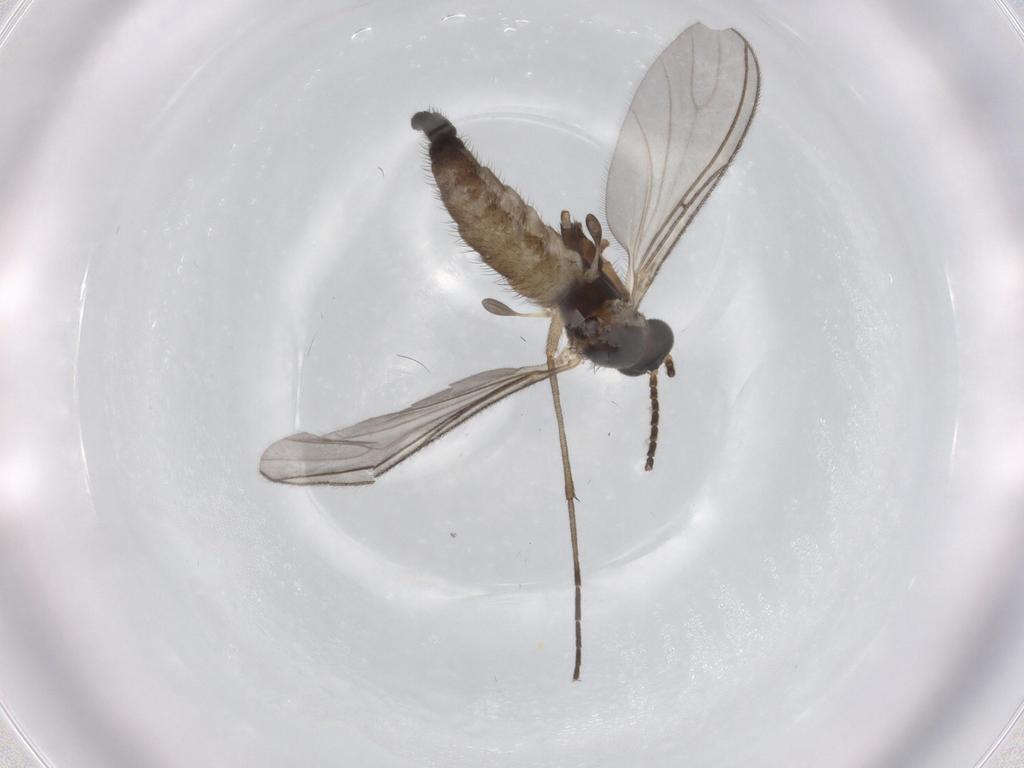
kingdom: Animalia
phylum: Arthropoda
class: Insecta
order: Diptera
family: Sciaridae
